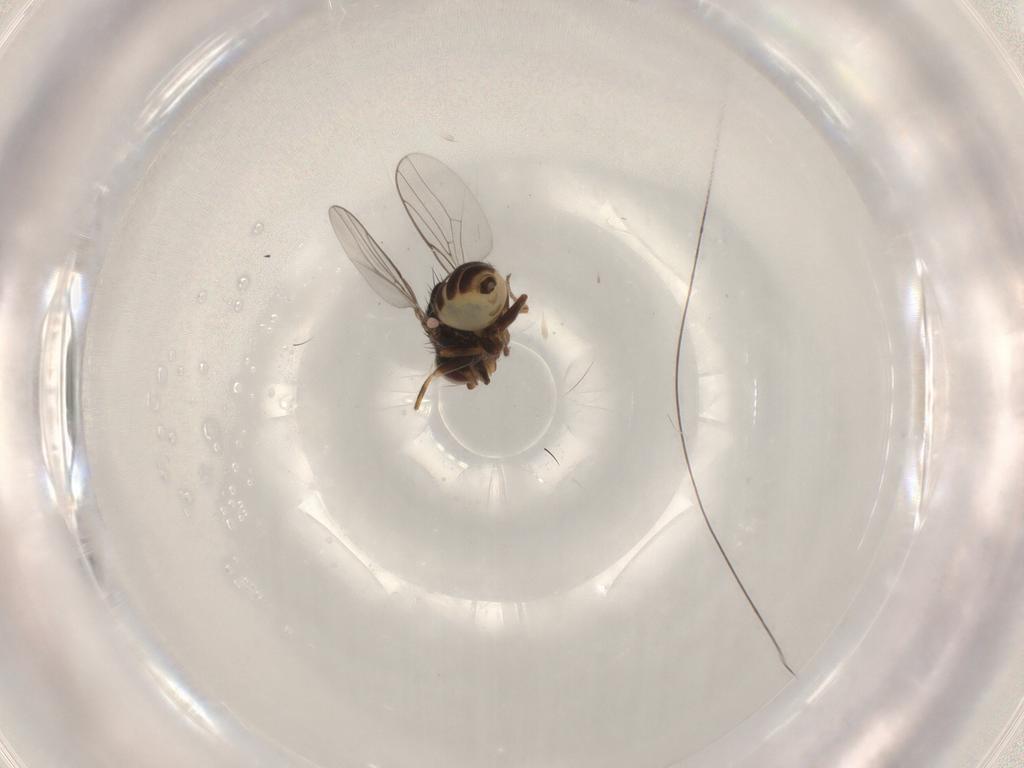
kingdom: Animalia
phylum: Arthropoda
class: Insecta
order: Diptera
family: Chloropidae
